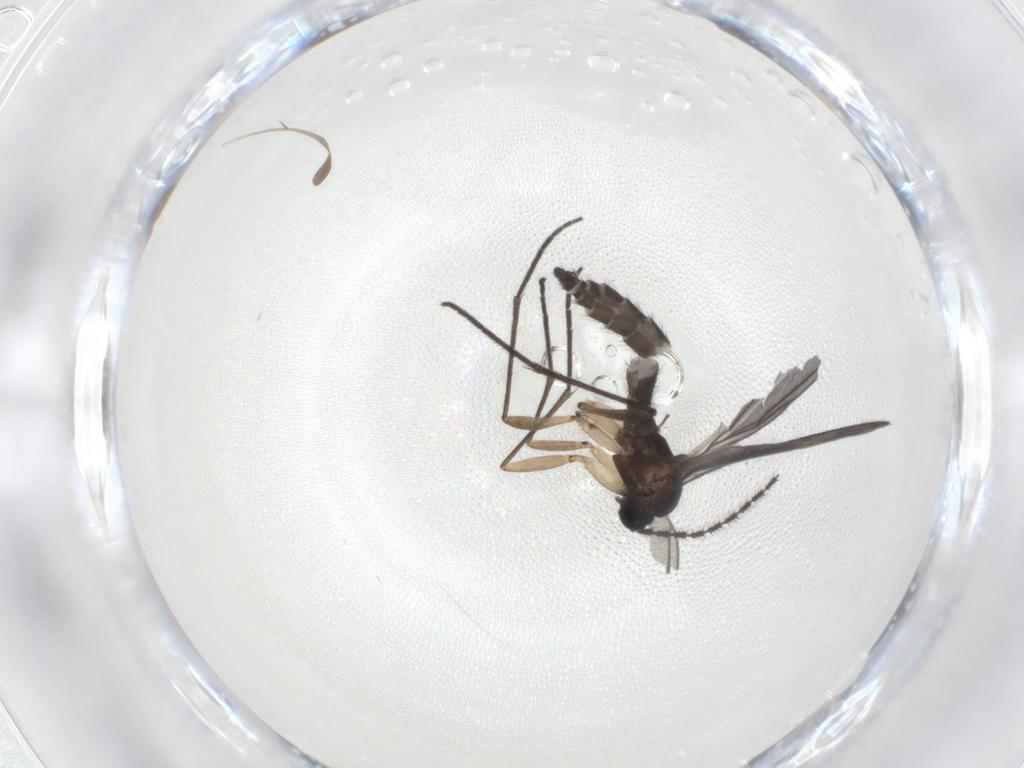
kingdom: Animalia
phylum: Arthropoda
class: Insecta
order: Diptera
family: Sciaridae
